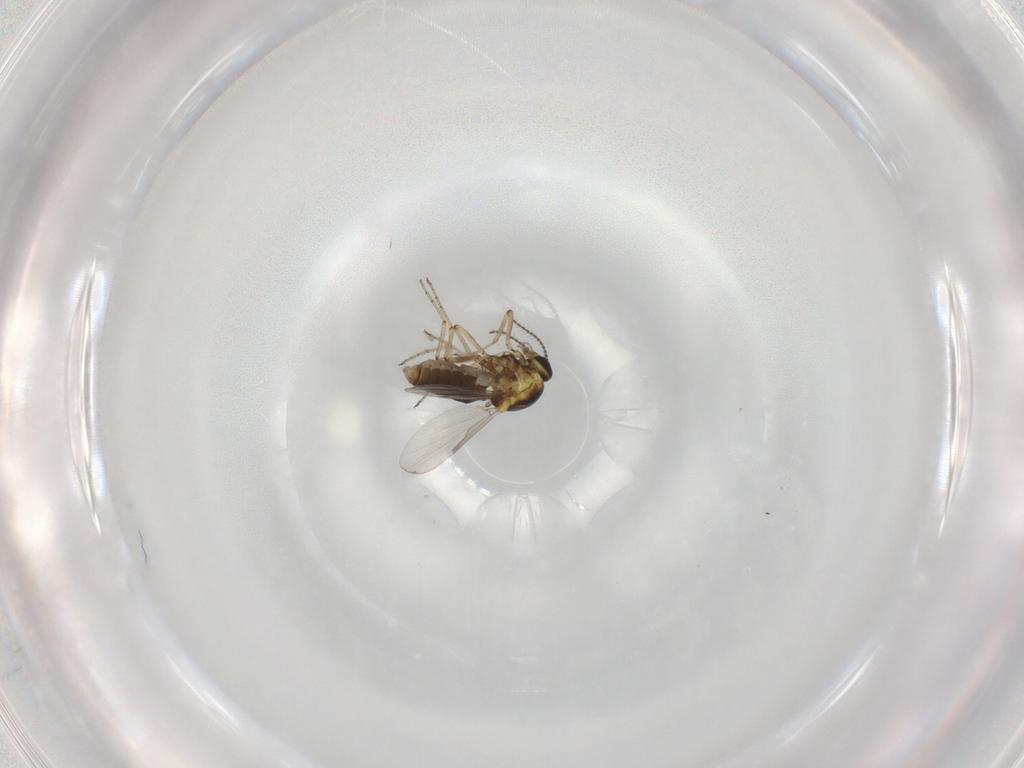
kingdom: Animalia
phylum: Arthropoda
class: Insecta
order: Diptera
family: Ceratopogonidae
